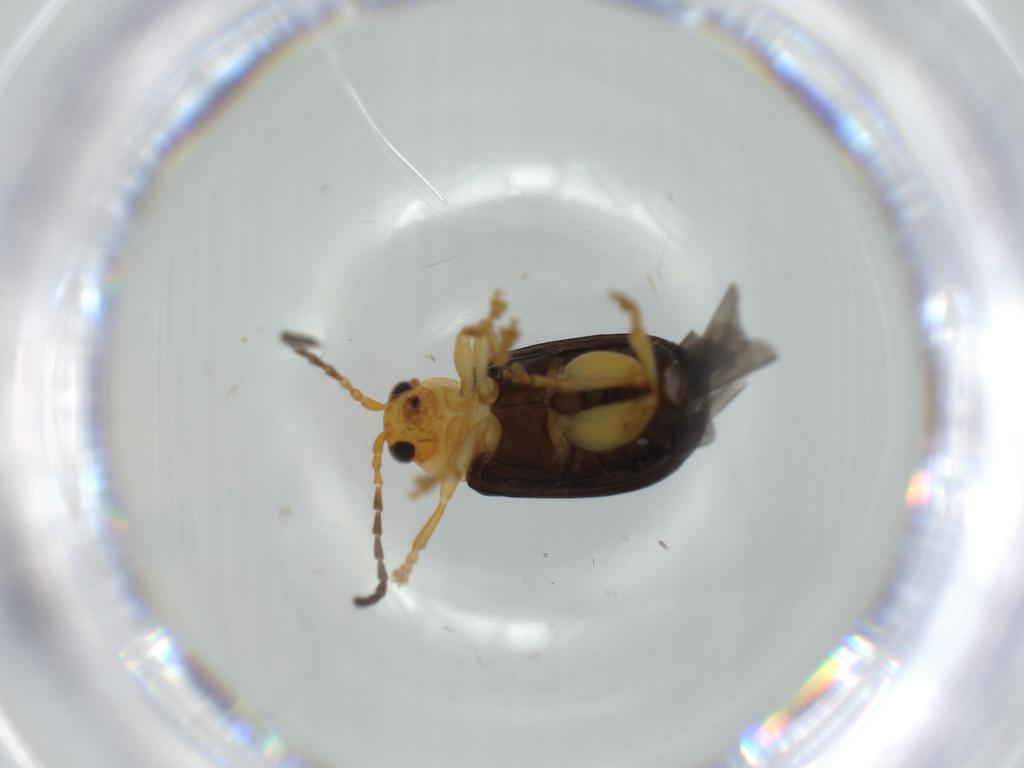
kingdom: Animalia
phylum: Arthropoda
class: Insecta
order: Coleoptera
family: Chrysomelidae
